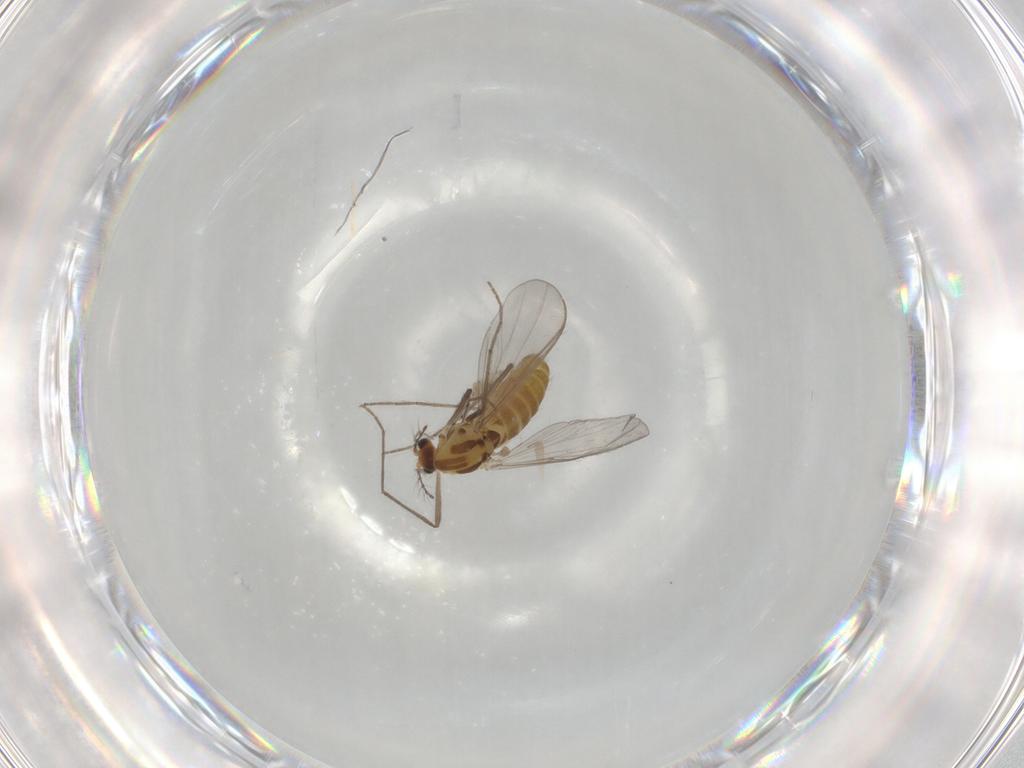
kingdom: Animalia
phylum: Arthropoda
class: Insecta
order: Diptera
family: Chironomidae
